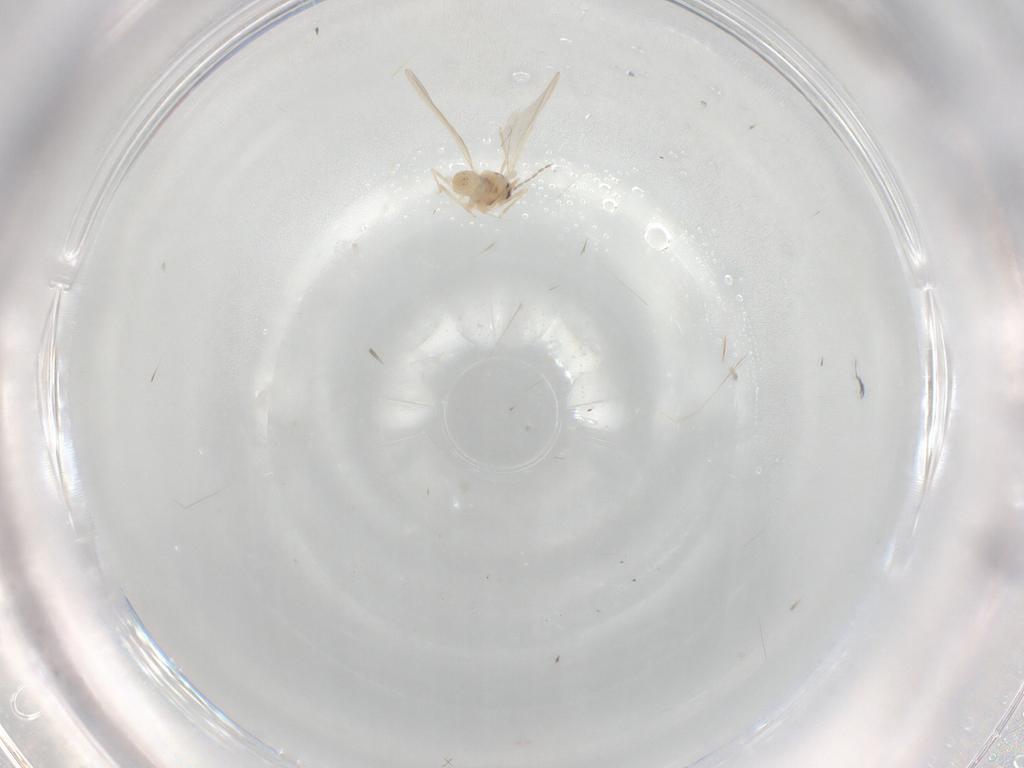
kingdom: Animalia
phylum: Arthropoda
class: Insecta
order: Diptera
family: Cecidomyiidae
